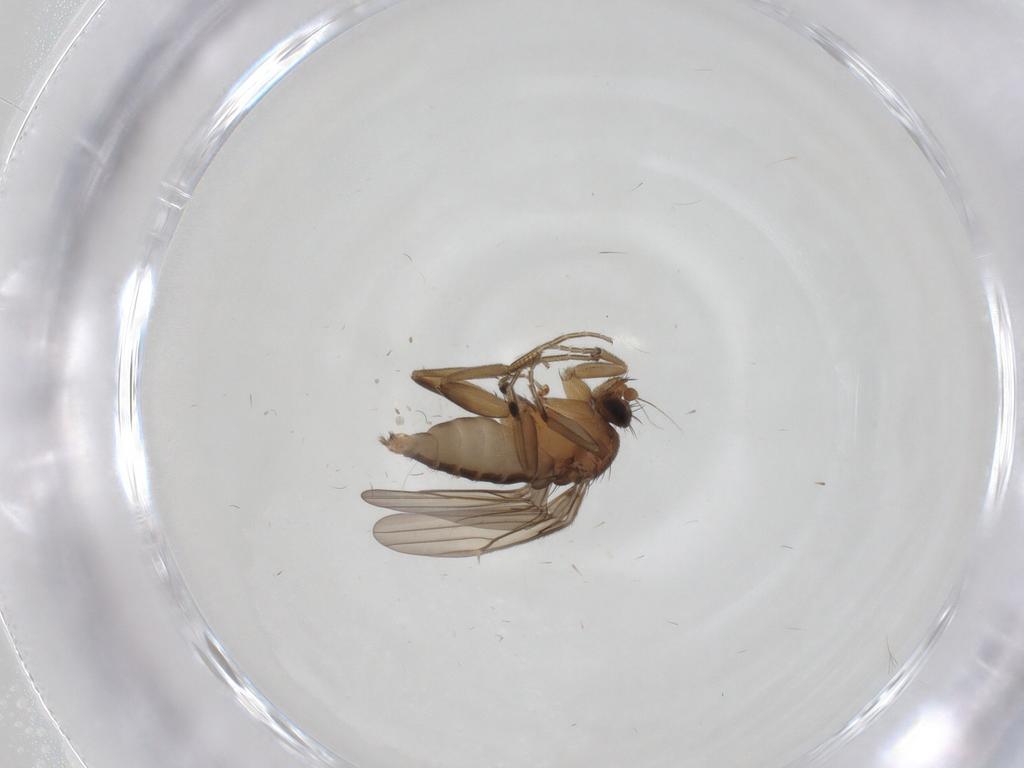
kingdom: Animalia
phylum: Arthropoda
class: Insecta
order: Diptera
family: Phoridae
